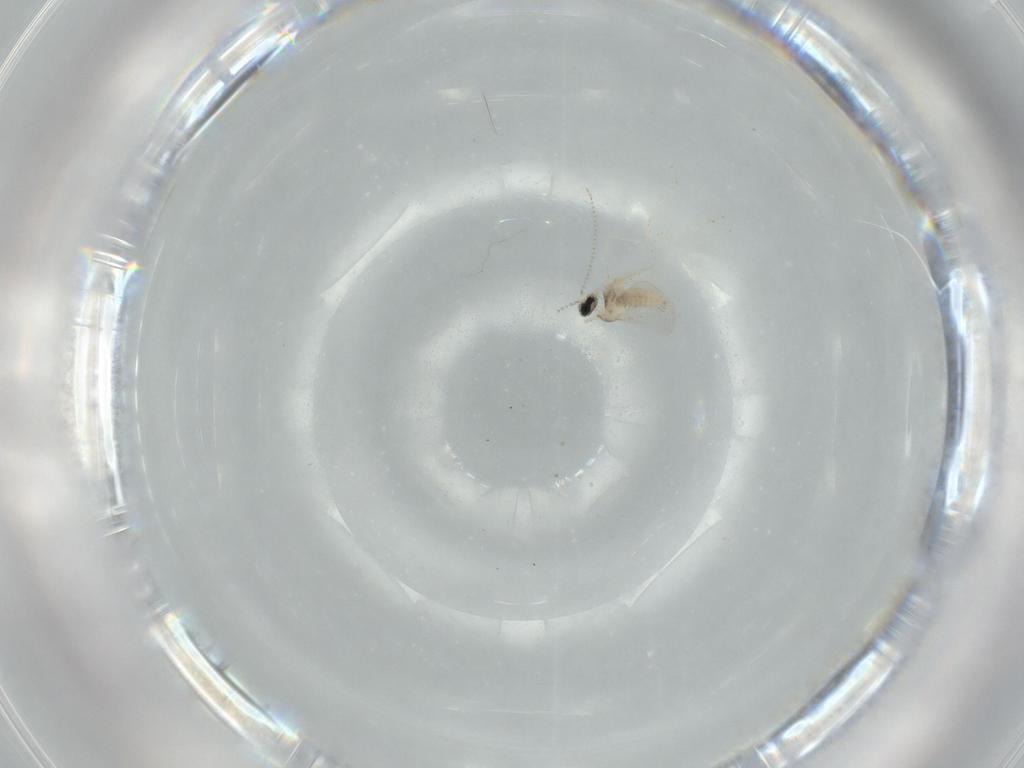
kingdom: Animalia
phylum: Arthropoda
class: Insecta
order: Diptera
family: Cecidomyiidae
